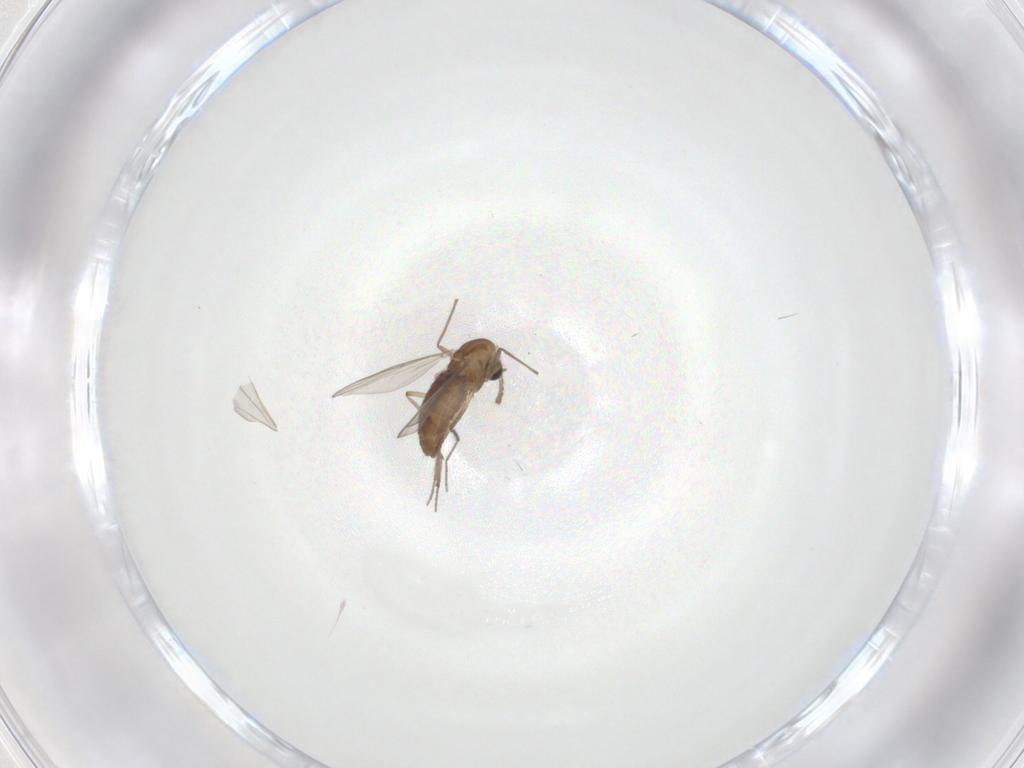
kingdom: Animalia
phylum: Arthropoda
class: Insecta
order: Diptera
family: Chironomidae
